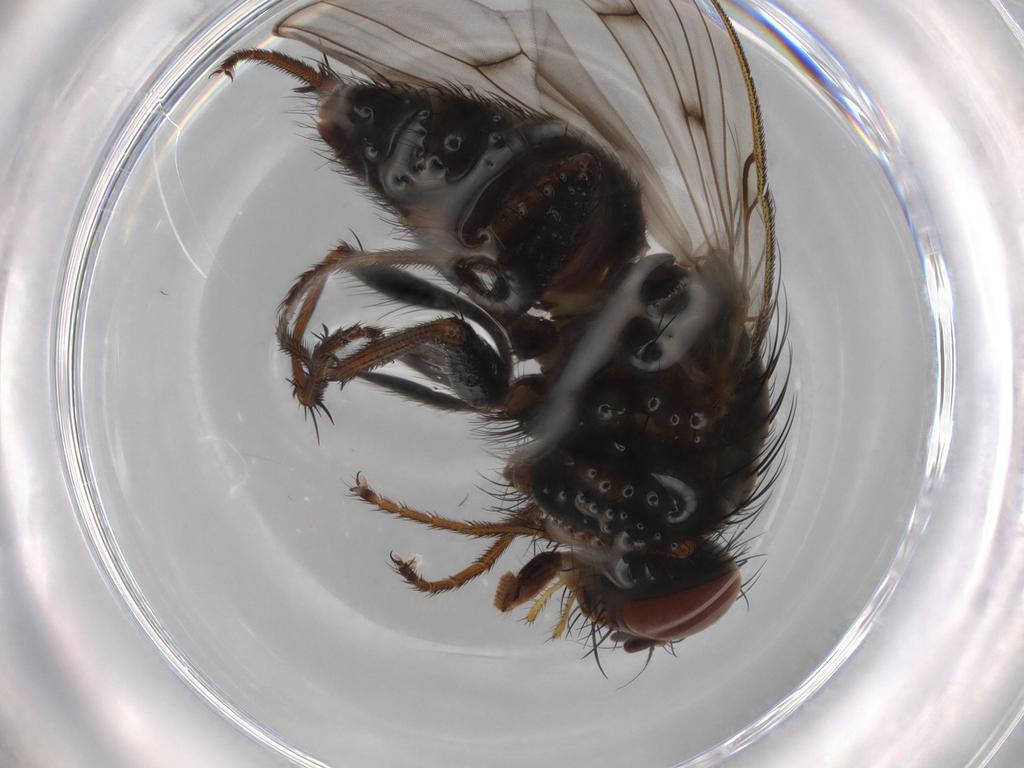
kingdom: Animalia
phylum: Arthropoda
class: Insecta
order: Diptera
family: Muscidae
